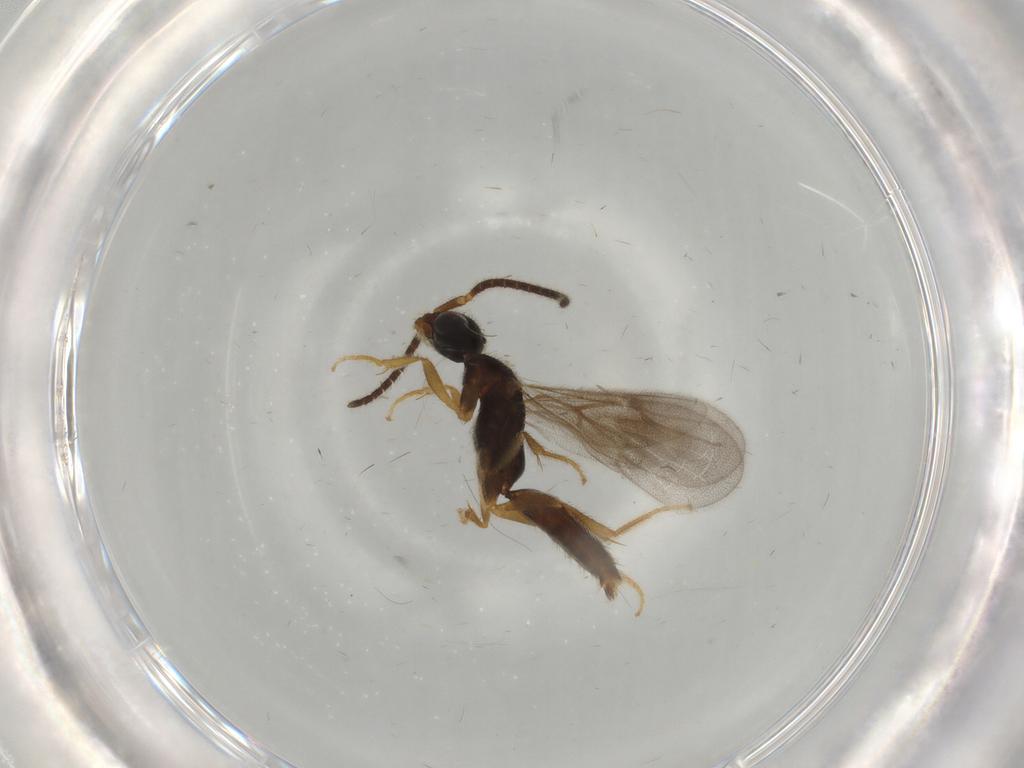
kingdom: Animalia
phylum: Arthropoda
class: Insecta
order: Hymenoptera
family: Bethylidae
